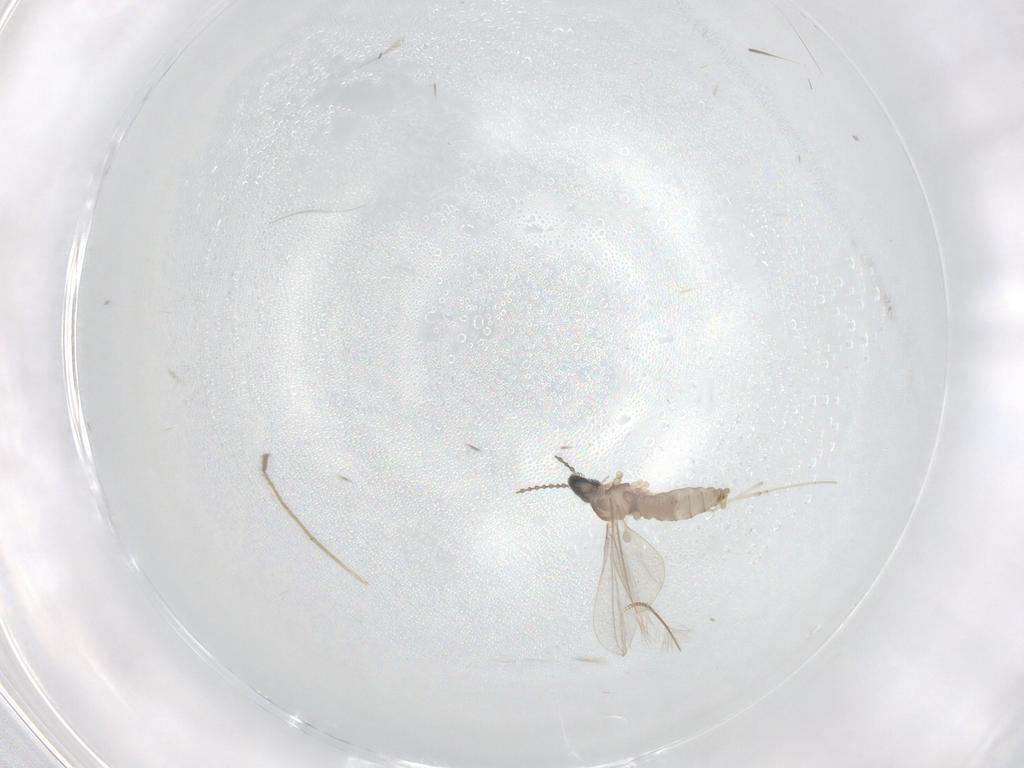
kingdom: Animalia
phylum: Arthropoda
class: Insecta
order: Diptera
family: Chironomidae
